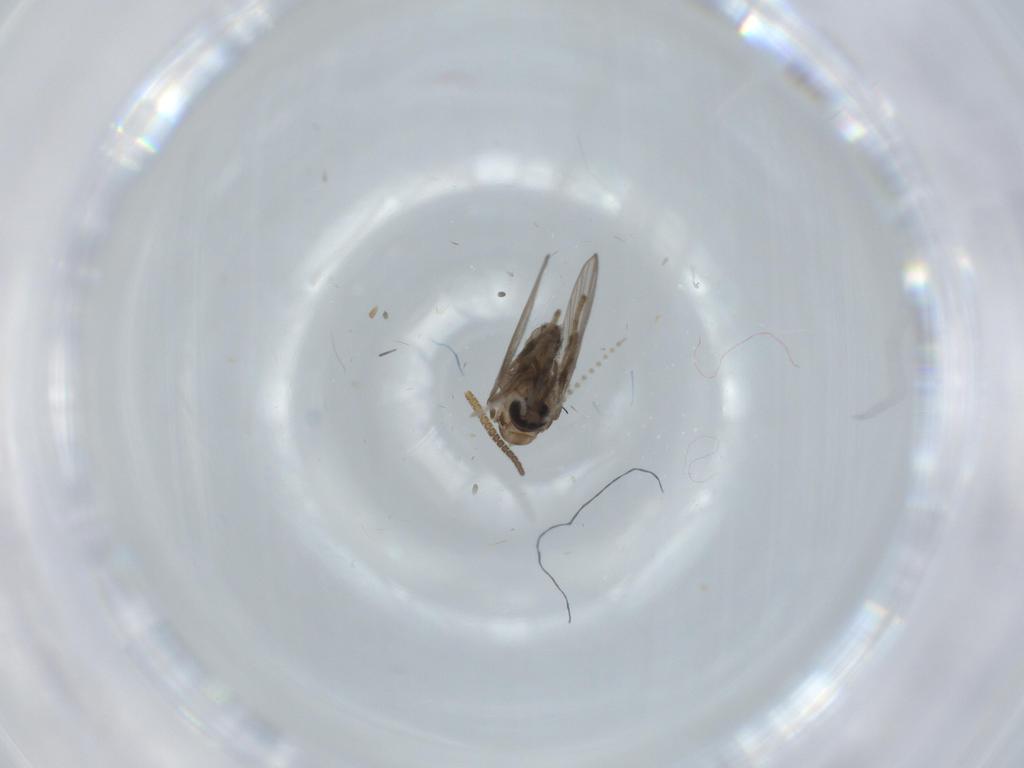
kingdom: Animalia
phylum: Arthropoda
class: Insecta
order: Diptera
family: Psychodidae
